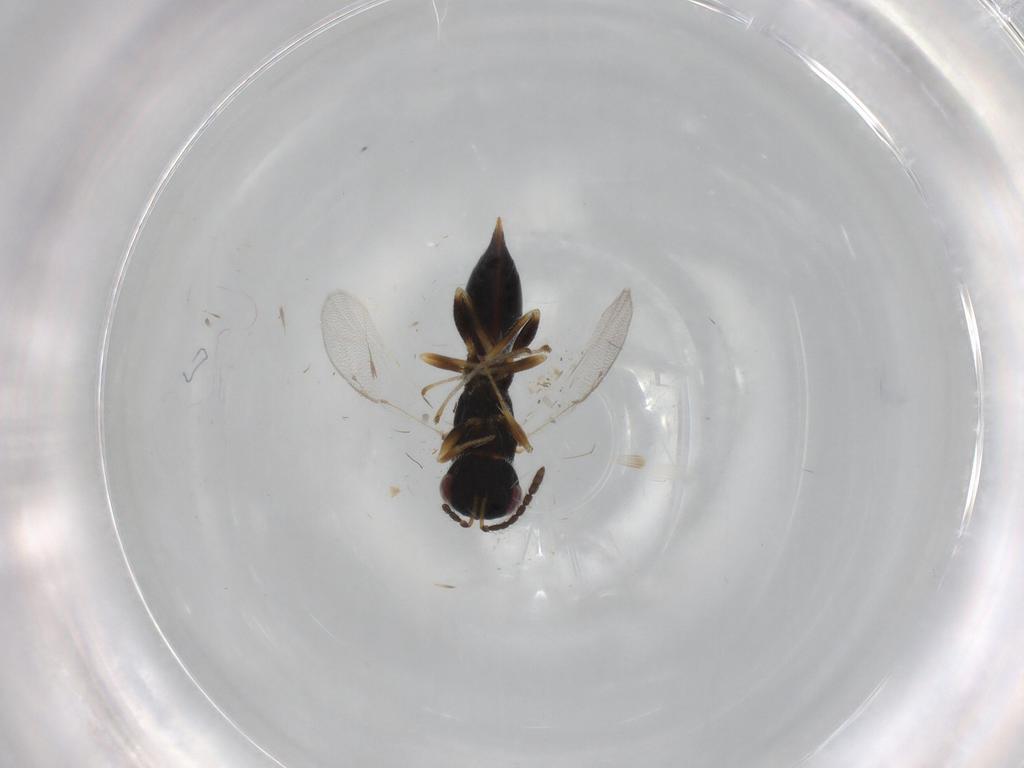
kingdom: Animalia
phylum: Arthropoda
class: Insecta
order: Hymenoptera
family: Eurytomidae
